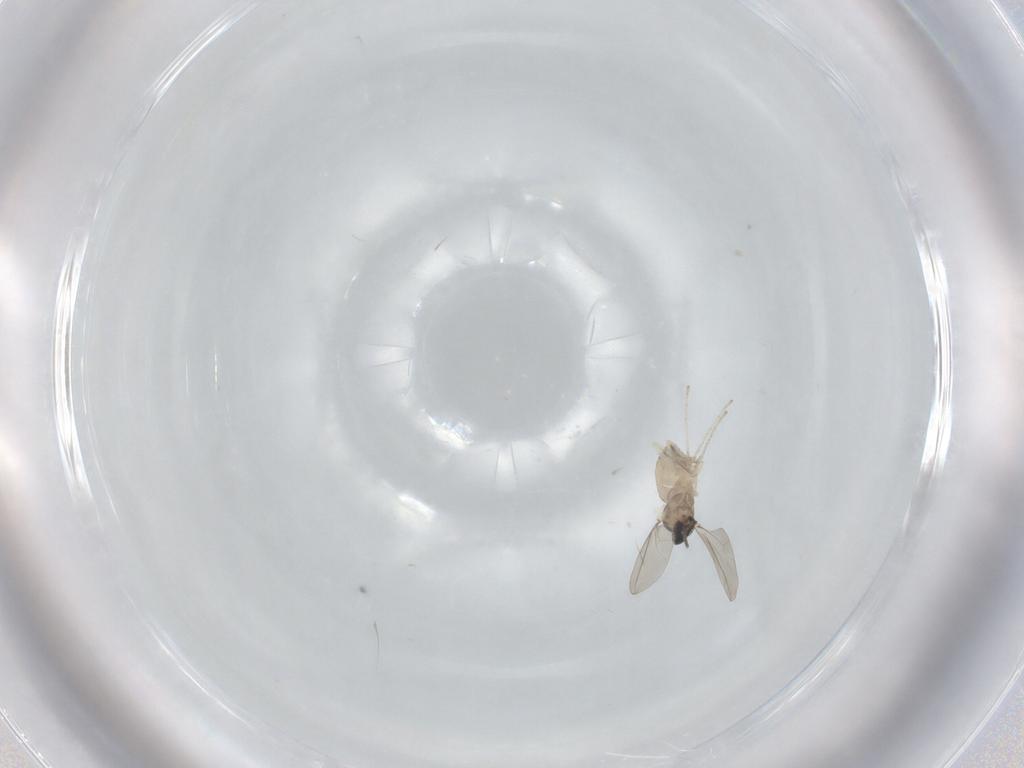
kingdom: Animalia
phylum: Arthropoda
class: Insecta
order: Diptera
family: Cecidomyiidae
